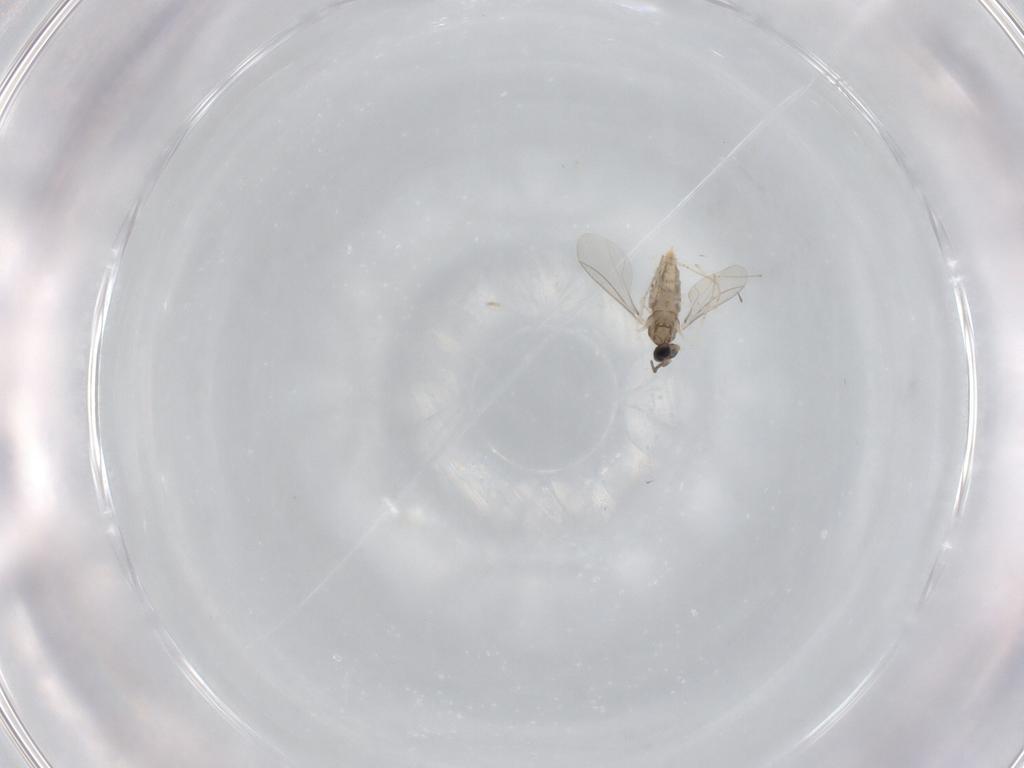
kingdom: Animalia
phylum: Arthropoda
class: Insecta
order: Diptera
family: Cecidomyiidae
